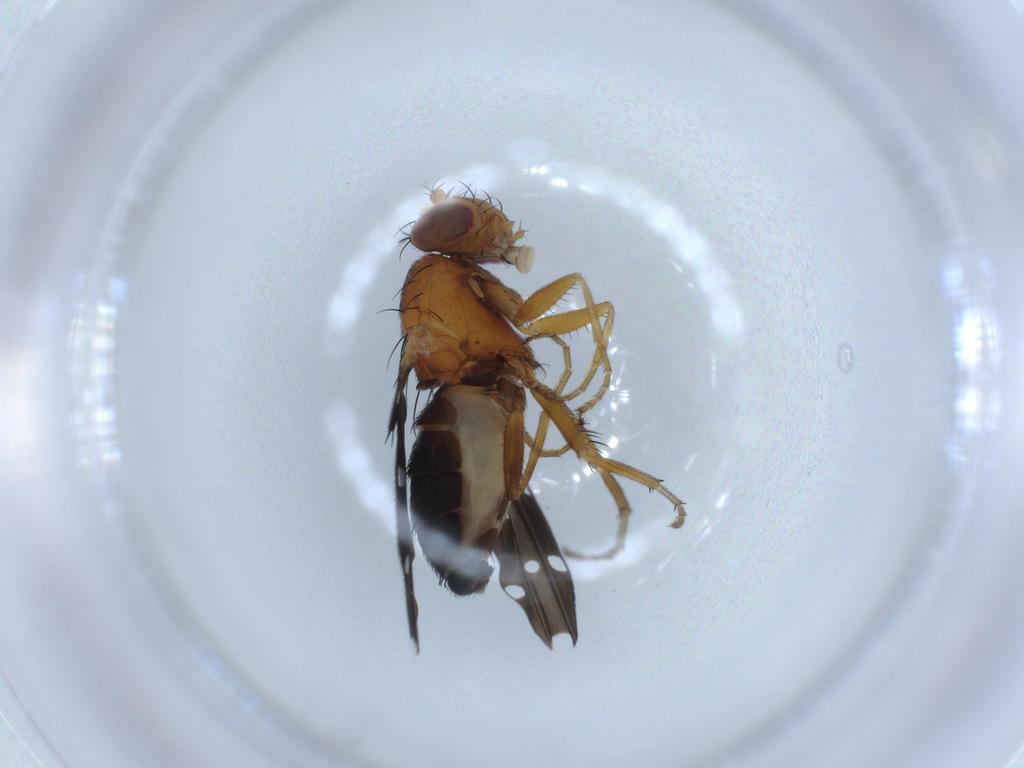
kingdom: Animalia
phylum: Arthropoda
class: Insecta
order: Diptera
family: Ephydridae
